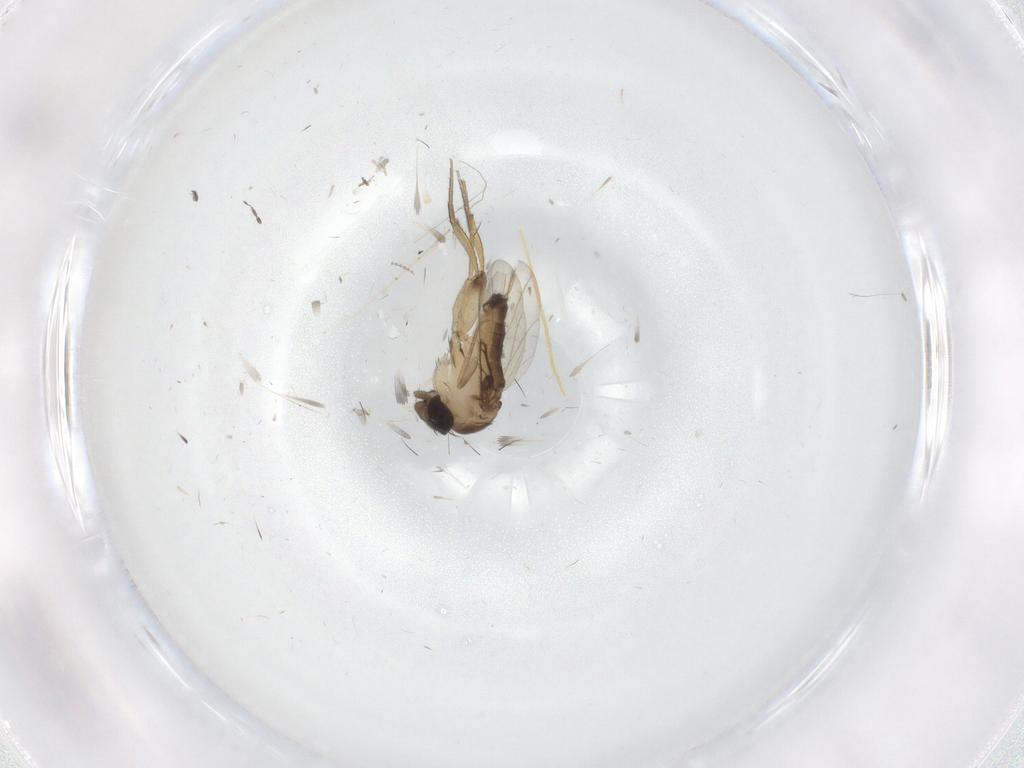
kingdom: Animalia
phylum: Arthropoda
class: Insecta
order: Diptera
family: Phoridae
